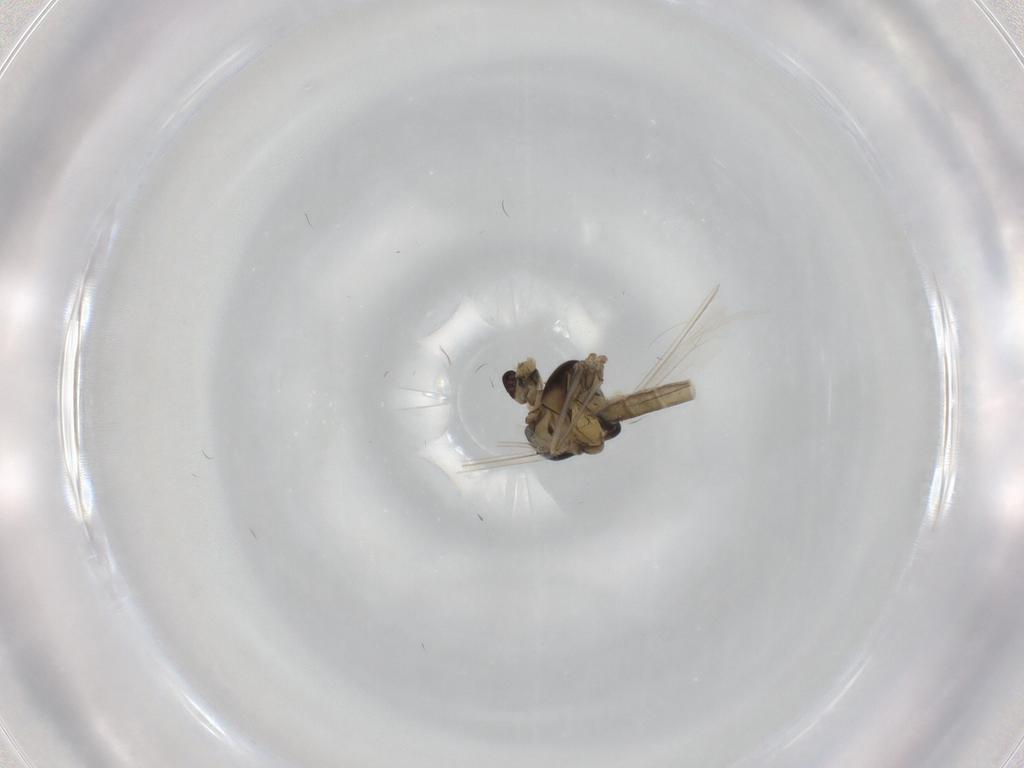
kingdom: Animalia
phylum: Arthropoda
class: Insecta
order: Diptera
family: Chironomidae
